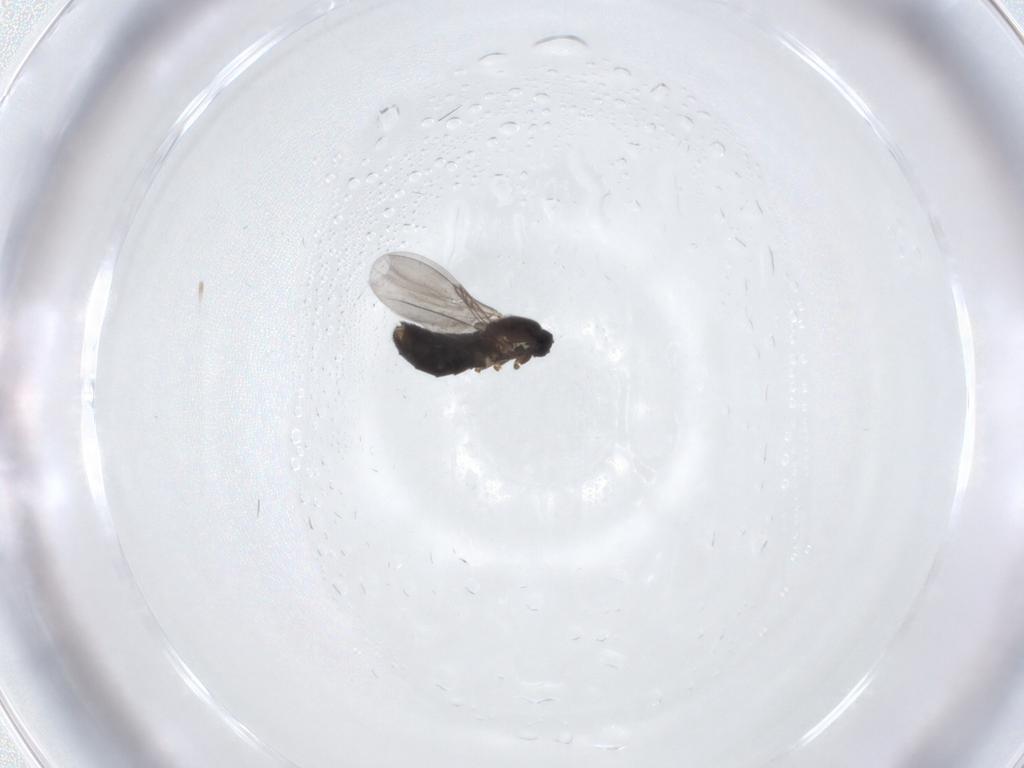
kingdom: Animalia
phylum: Arthropoda
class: Insecta
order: Diptera
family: Scatopsidae
